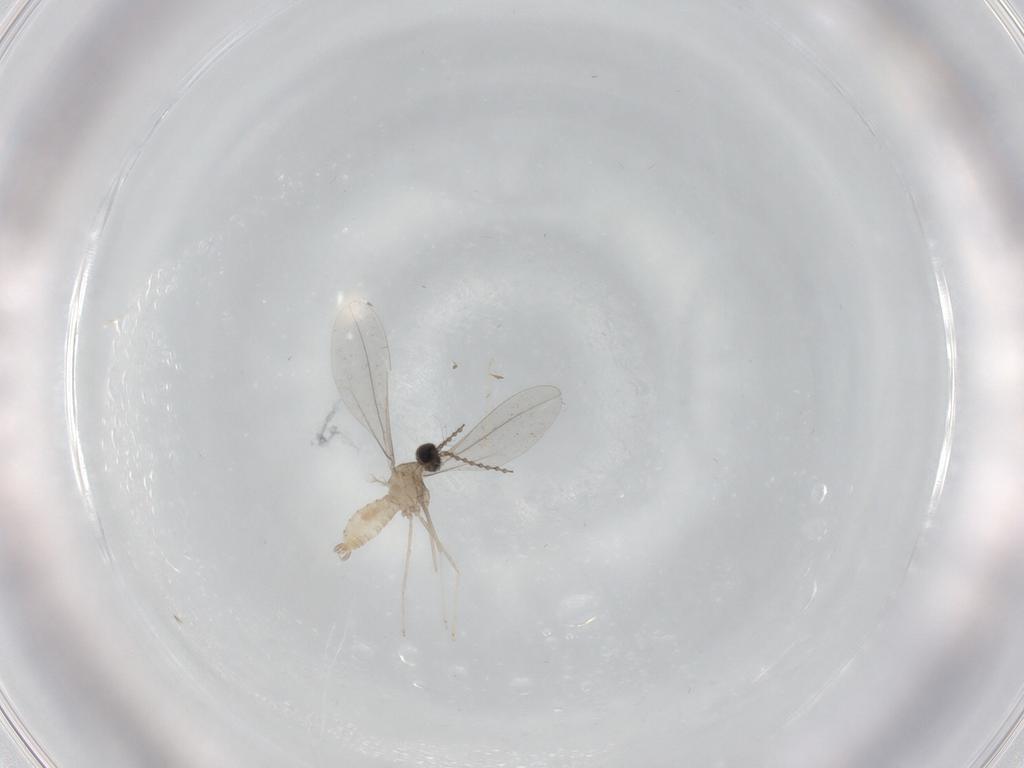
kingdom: Animalia
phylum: Arthropoda
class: Insecta
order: Diptera
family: Cecidomyiidae
